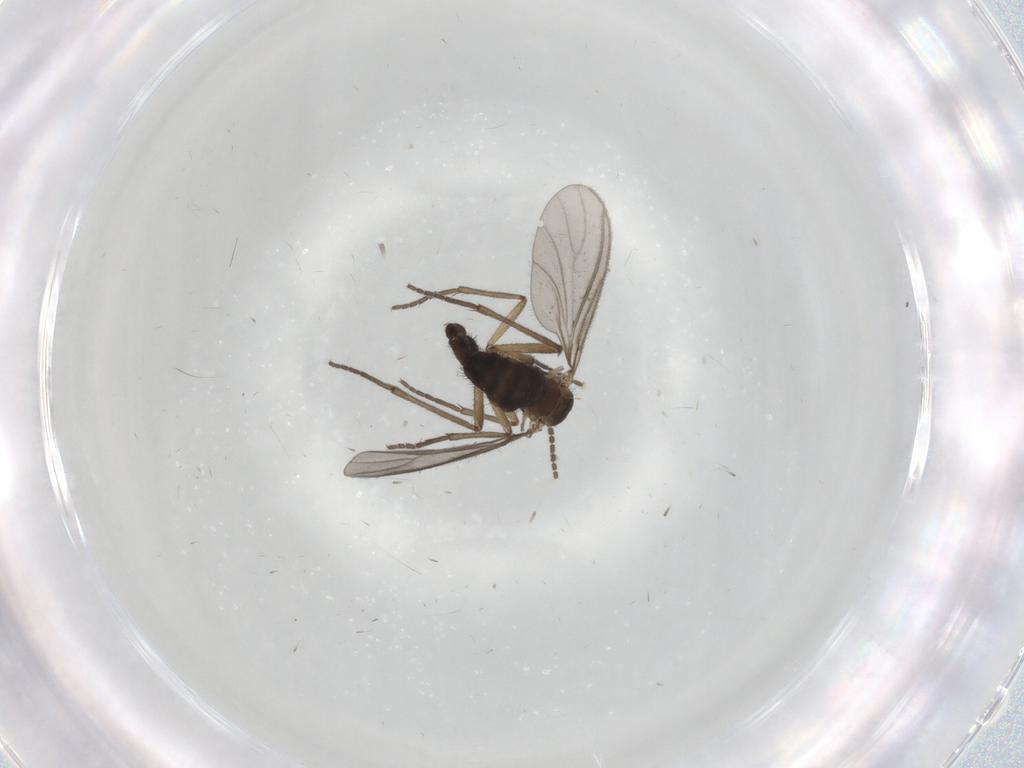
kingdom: Animalia
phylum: Arthropoda
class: Insecta
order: Diptera
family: Sciaridae
